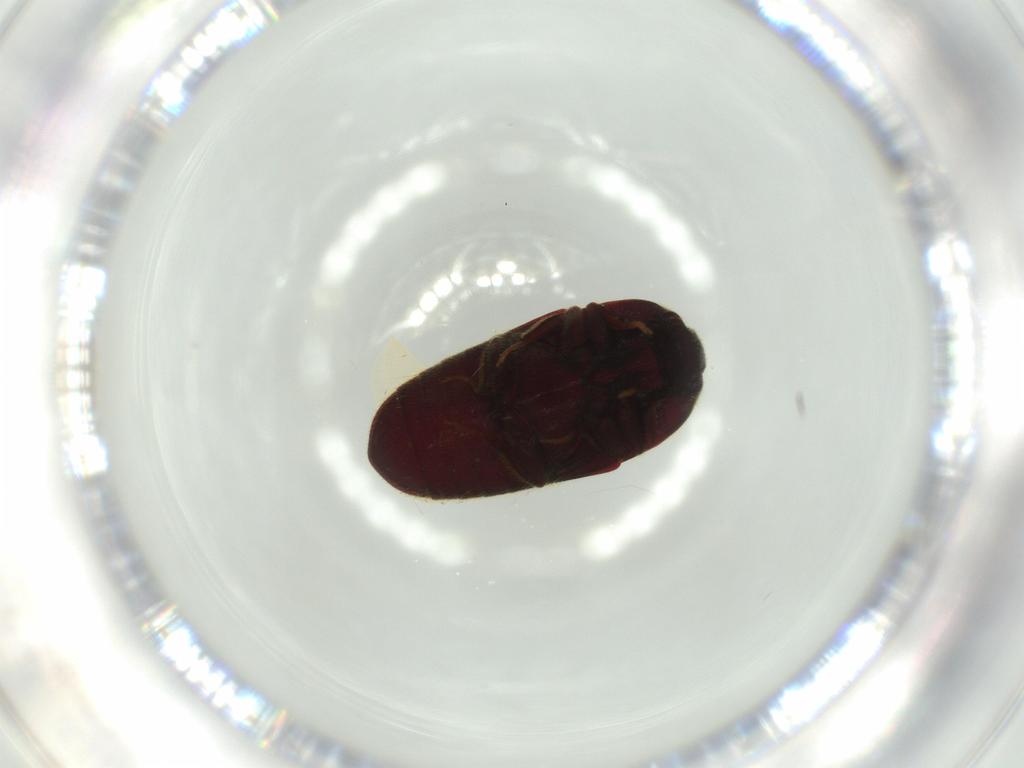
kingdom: Animalia
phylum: Arthropoda
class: Insecta
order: Coleoptera
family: Throscidae
